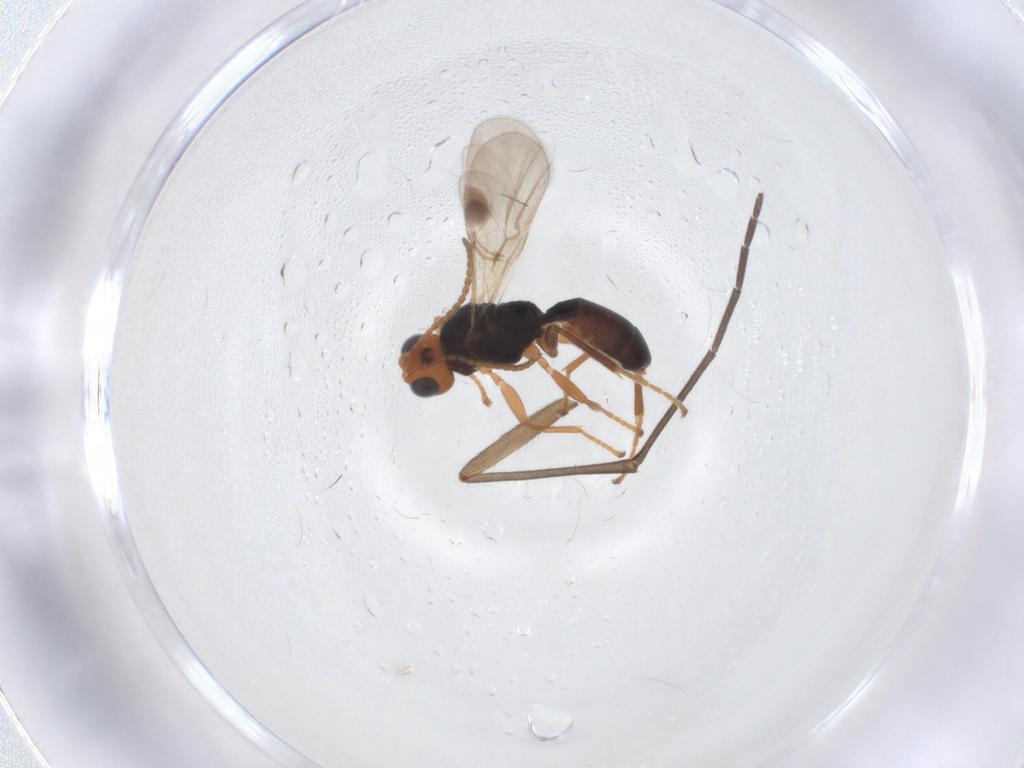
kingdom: Animalia
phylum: Arthropoda
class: Insecta
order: Hymenoptera
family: Braconidae
